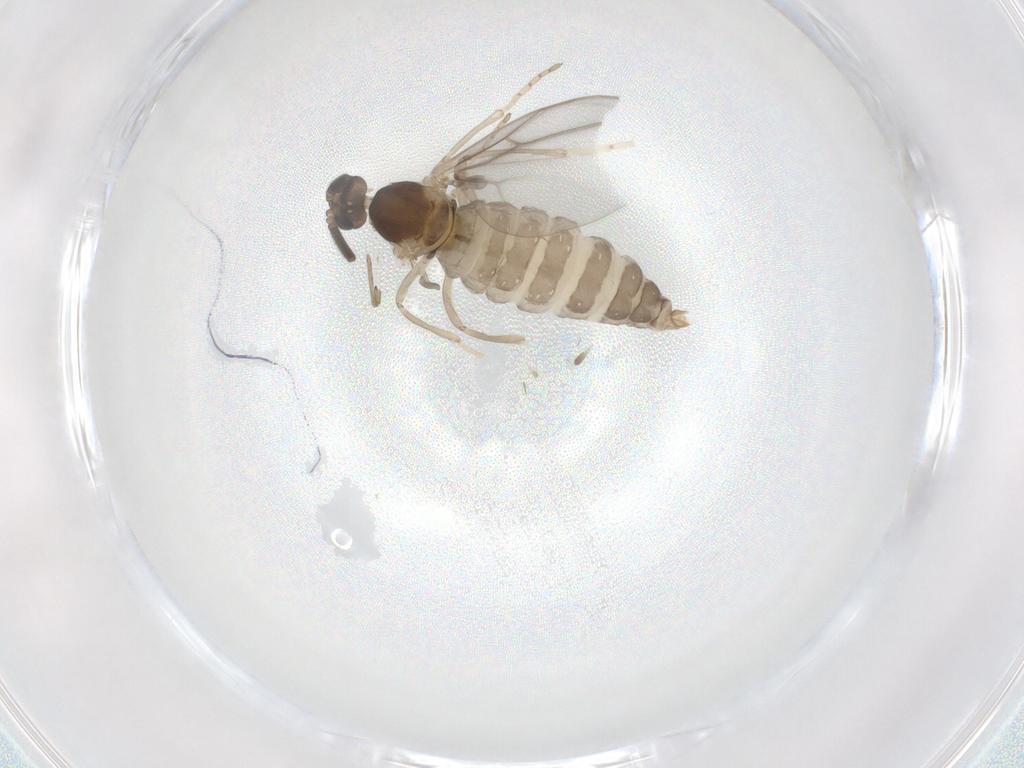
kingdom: Animalia
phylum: Arthropoda
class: Insecta
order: Diptera
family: Cecidomyiidae
